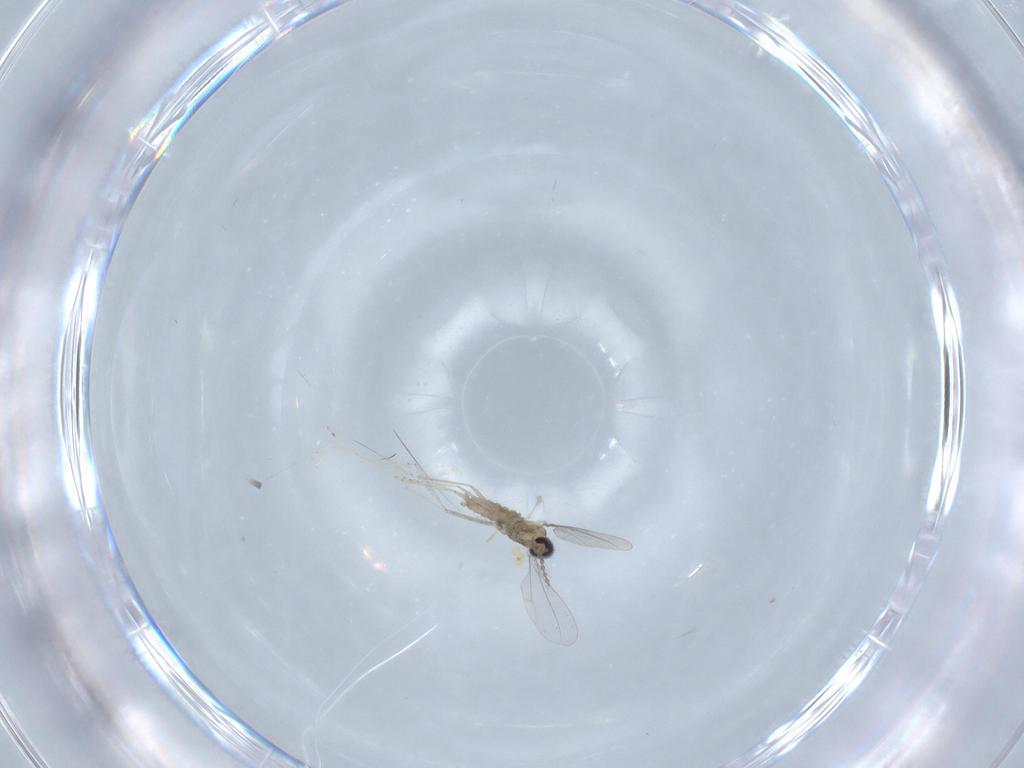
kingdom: Animalia
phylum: Arthropoda
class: Insecta
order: Diptera
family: Cecidomyiidae
